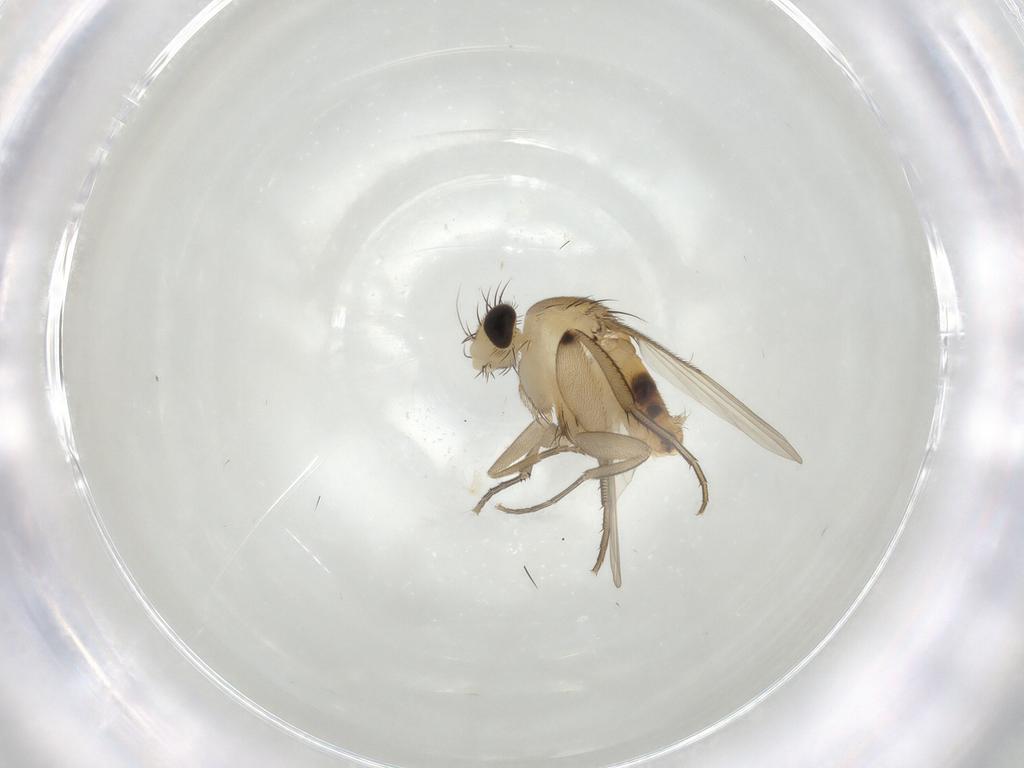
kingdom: Animalia
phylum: Arthropoda
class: Insecta
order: Diptera
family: Phoridae
